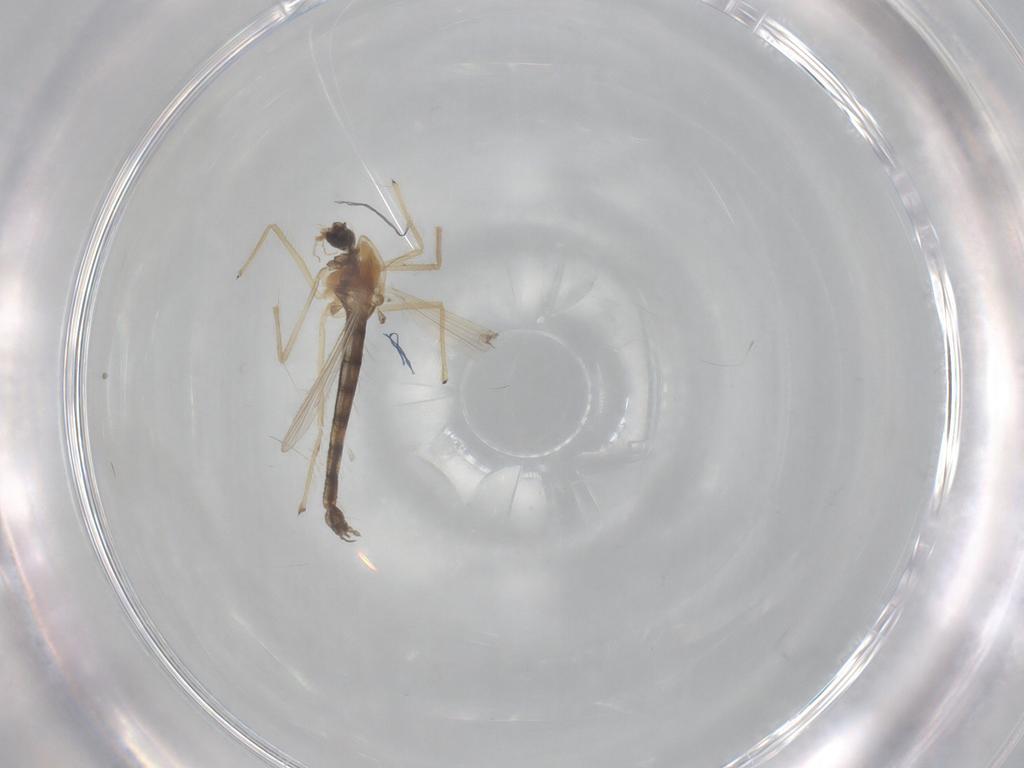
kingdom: Animalia
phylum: Arthropoda
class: Insecta
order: Diptera
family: Chironomidae
